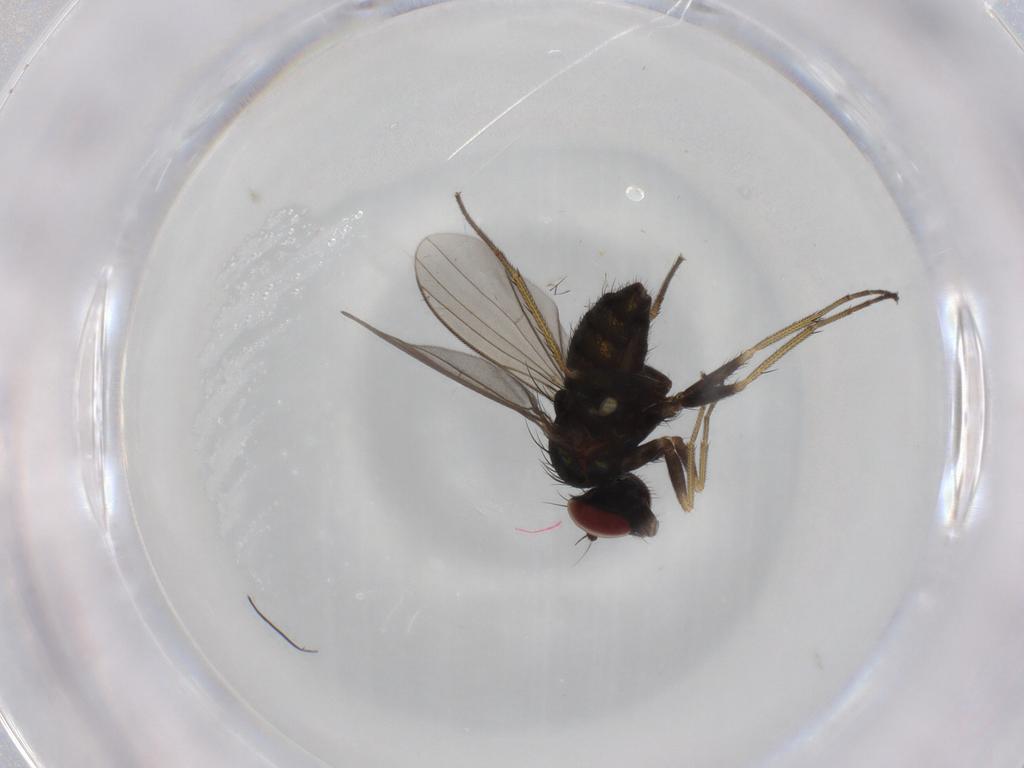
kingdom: Animalia
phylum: Arthropoda
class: Insecta
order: Diptera
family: Dolichopodidae
